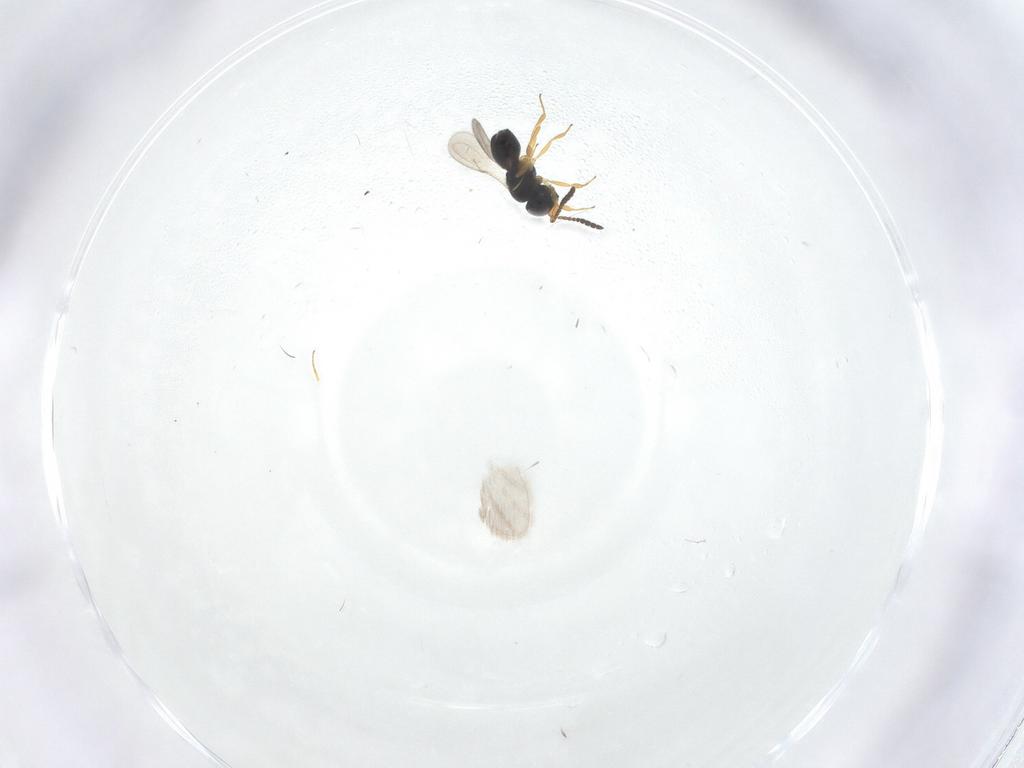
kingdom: Animalia
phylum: Arthropoda
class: Insecta
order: Hymenoptera
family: Scelionidae
